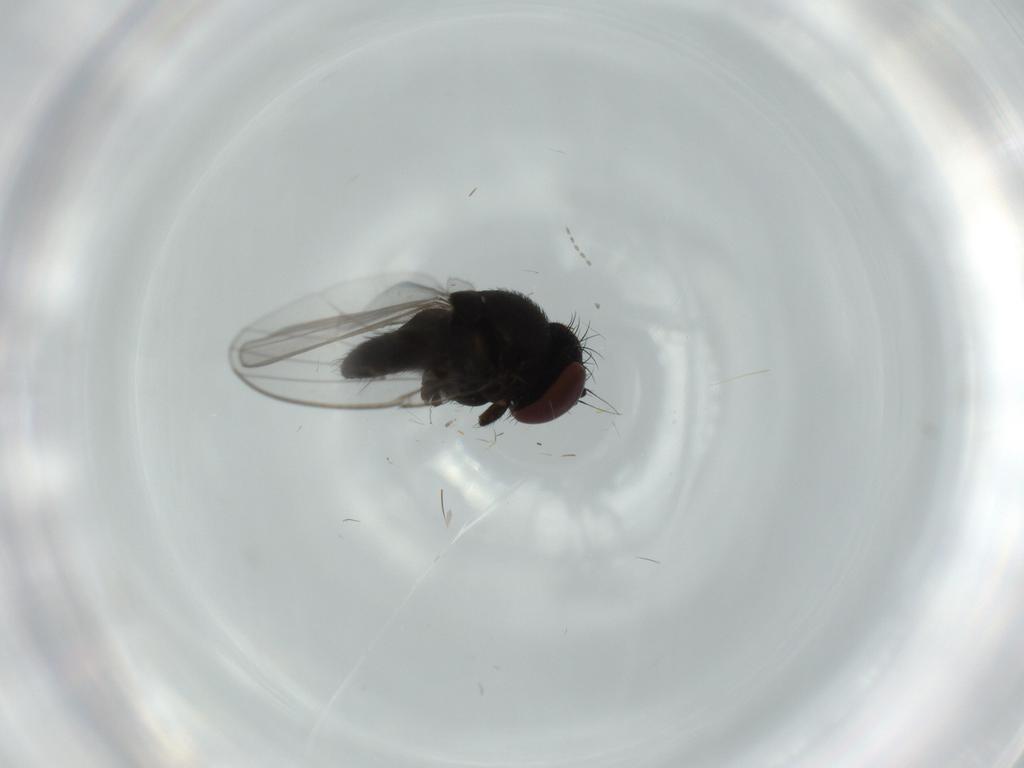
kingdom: Animalia
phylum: Arthropoda
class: Insecta
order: Diptera
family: Milichiidae
